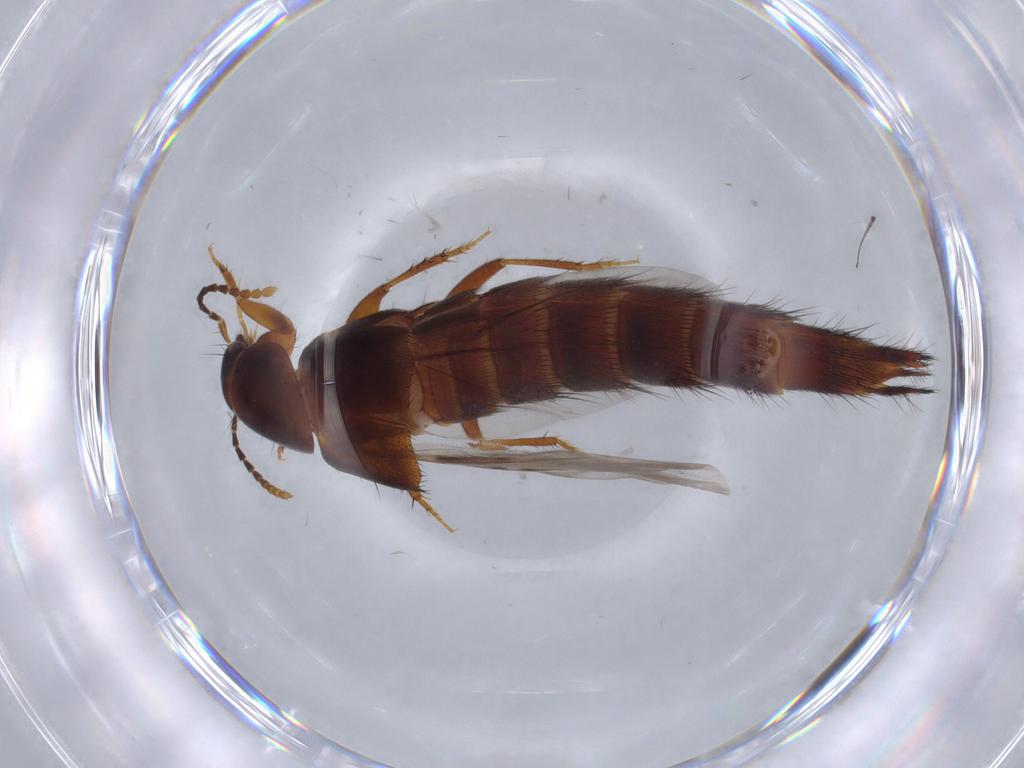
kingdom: Animalia
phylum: Arthropoda
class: Insecta
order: Coleoptera
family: Staphylinidae
